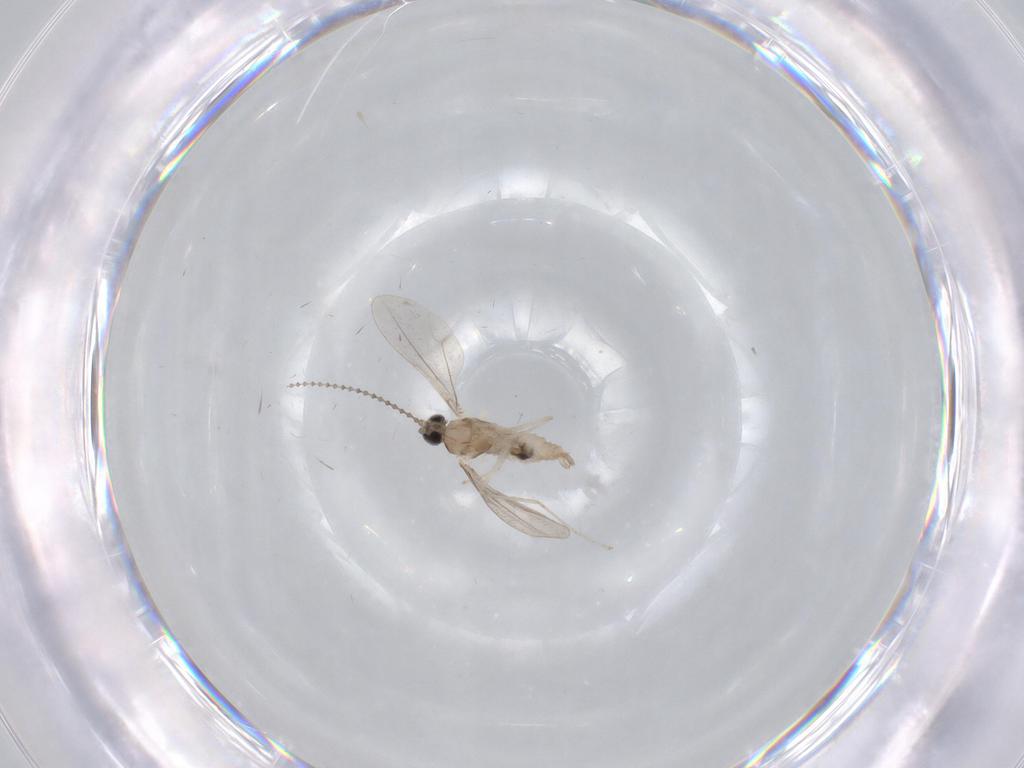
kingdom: Animalia
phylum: Arthropoda
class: Insecta
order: Diptera
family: Cecidomyiidae
